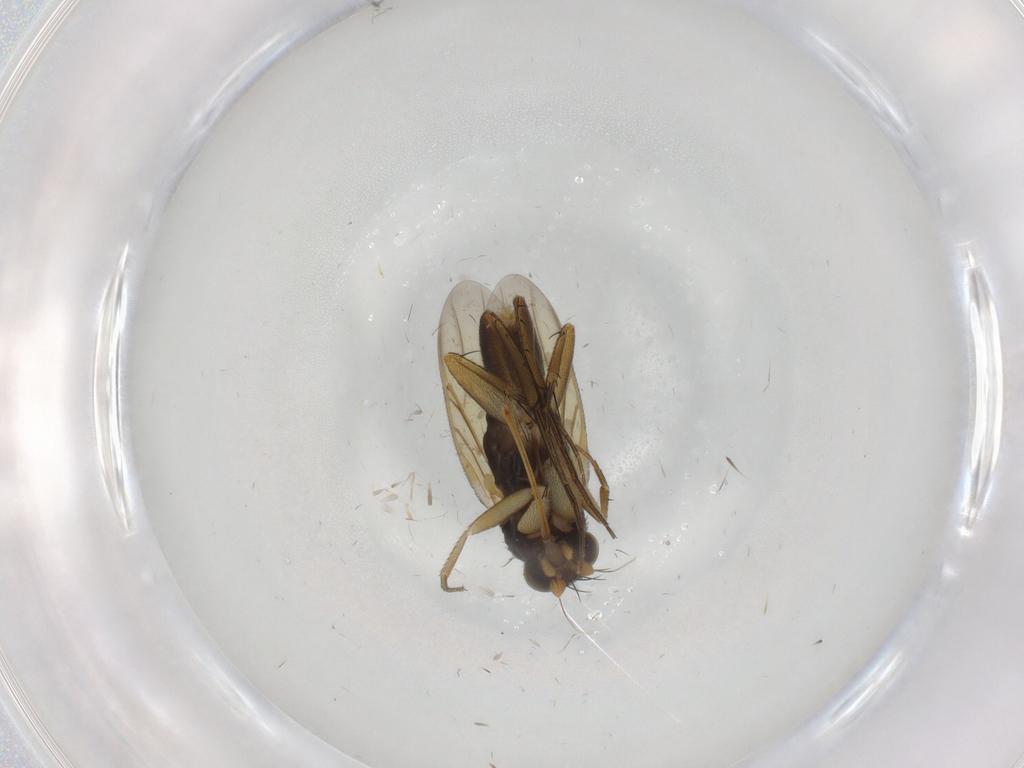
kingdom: Animalia
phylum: Arthropoda
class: Insecta
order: Diptera
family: Phoridae
